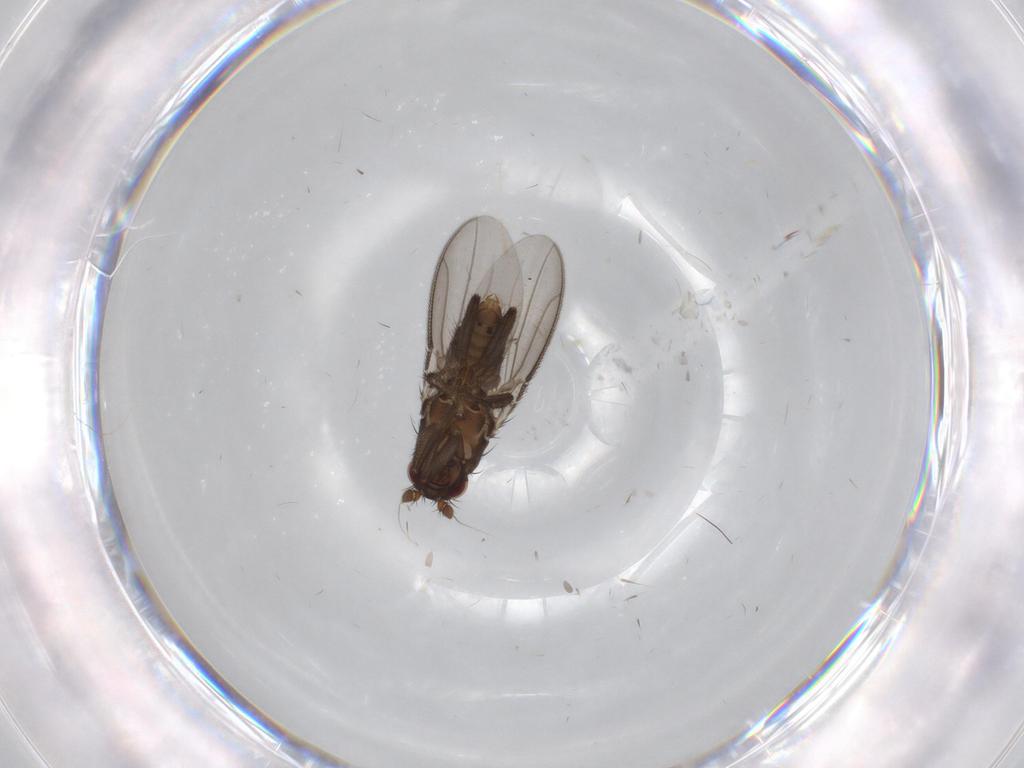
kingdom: Animalia
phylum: Arthropoda
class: Insecta
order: Diptera
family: Sphaeroceridae
